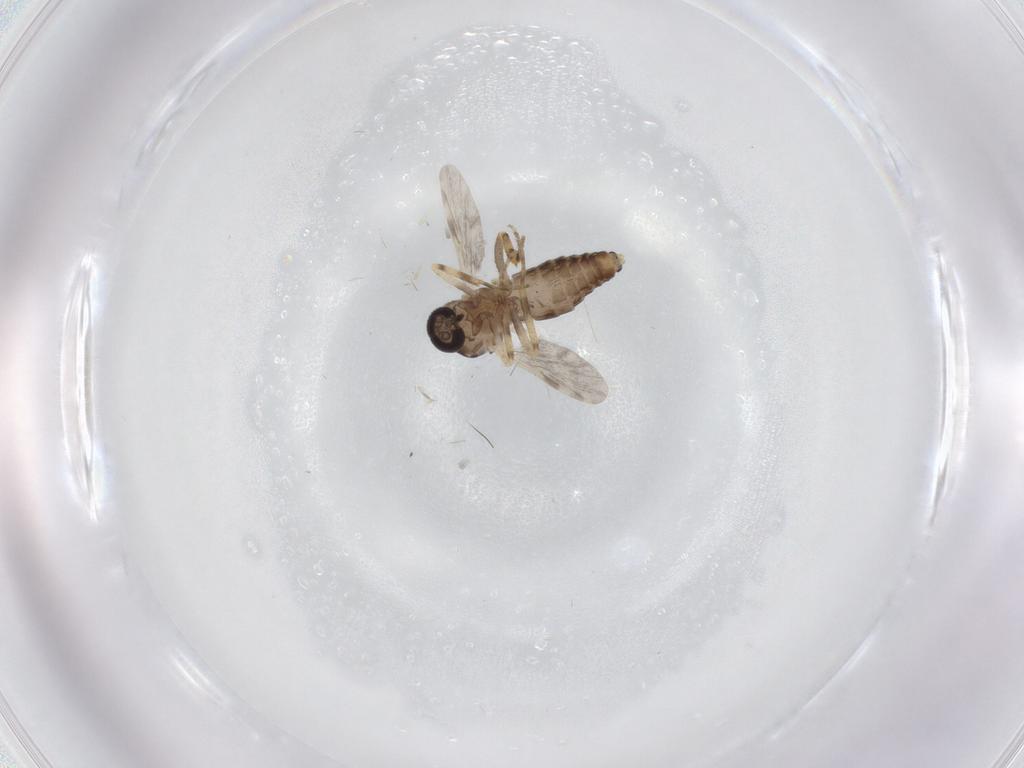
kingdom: Animalia
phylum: Arthropoda
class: Insecta
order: Diptera
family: Ceratopogonidae
